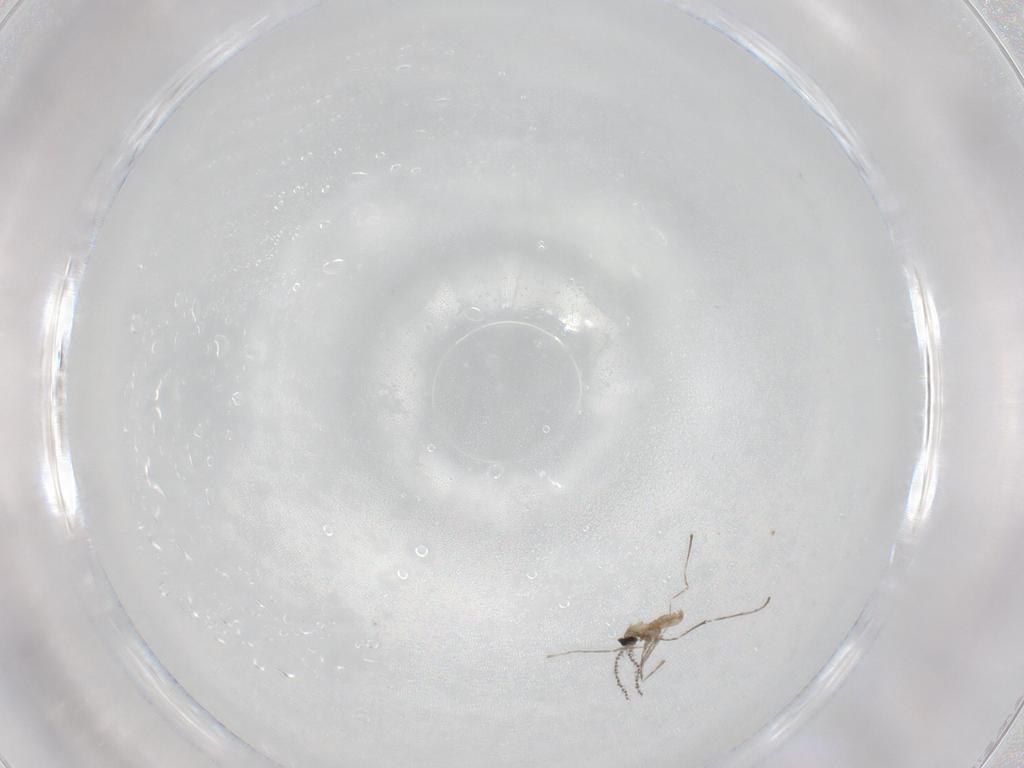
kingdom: Animalia
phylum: Arthropoda
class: Insecta
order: Diptera
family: Cecidomyiidae
